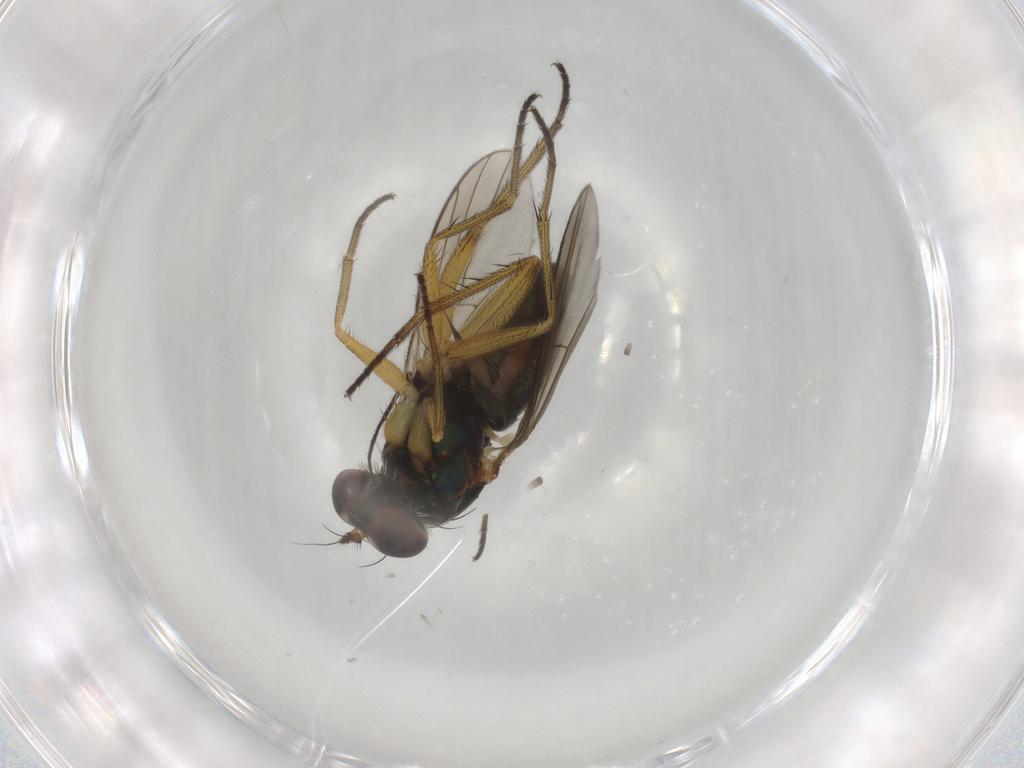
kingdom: Animalia
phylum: Arthropoda
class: Insecta
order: Diptera
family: Dolichopodidae
